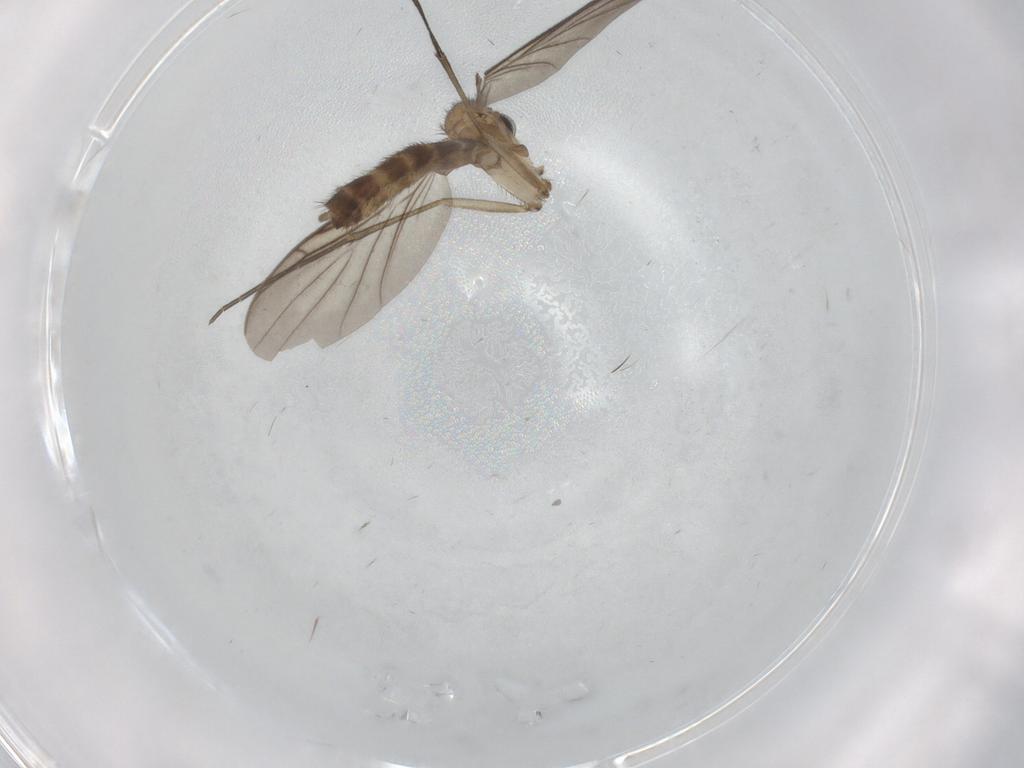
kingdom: Animalia
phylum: Arthropoda
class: Insecta
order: Diptera
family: Keroplatidae
